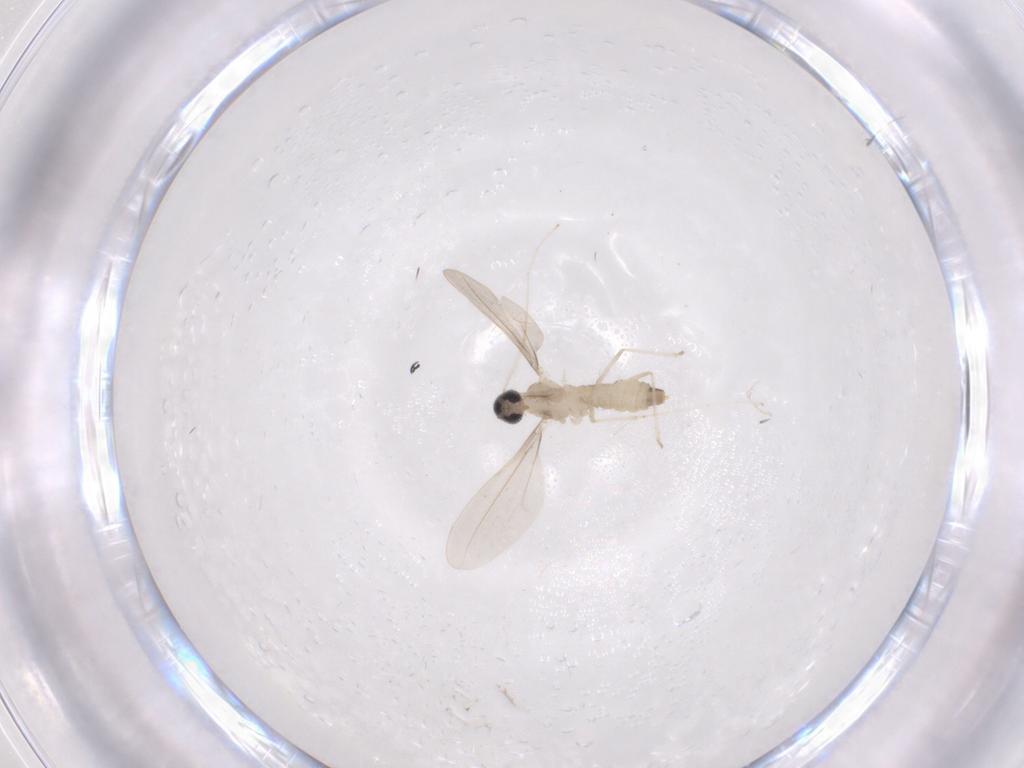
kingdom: Animalia
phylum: Arthropoda
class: Insecta
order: Diptera
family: Cecidomyiidae
